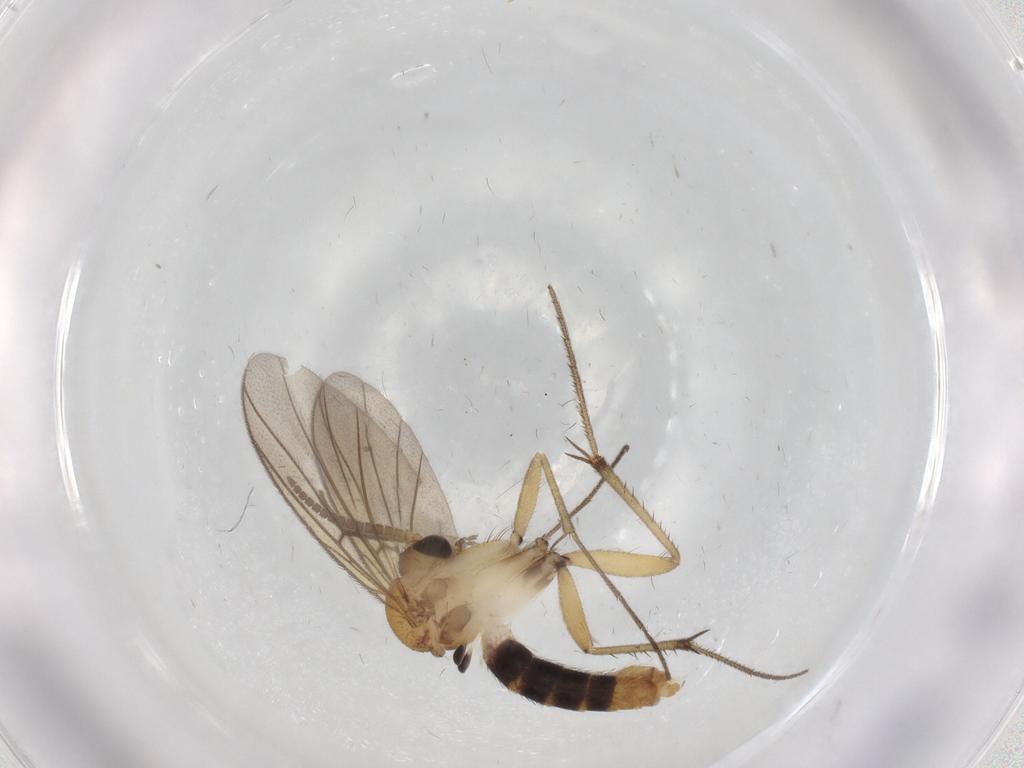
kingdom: Animalia
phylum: Arthropoda
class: Insecta
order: Diptera
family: Mycetophilidae
